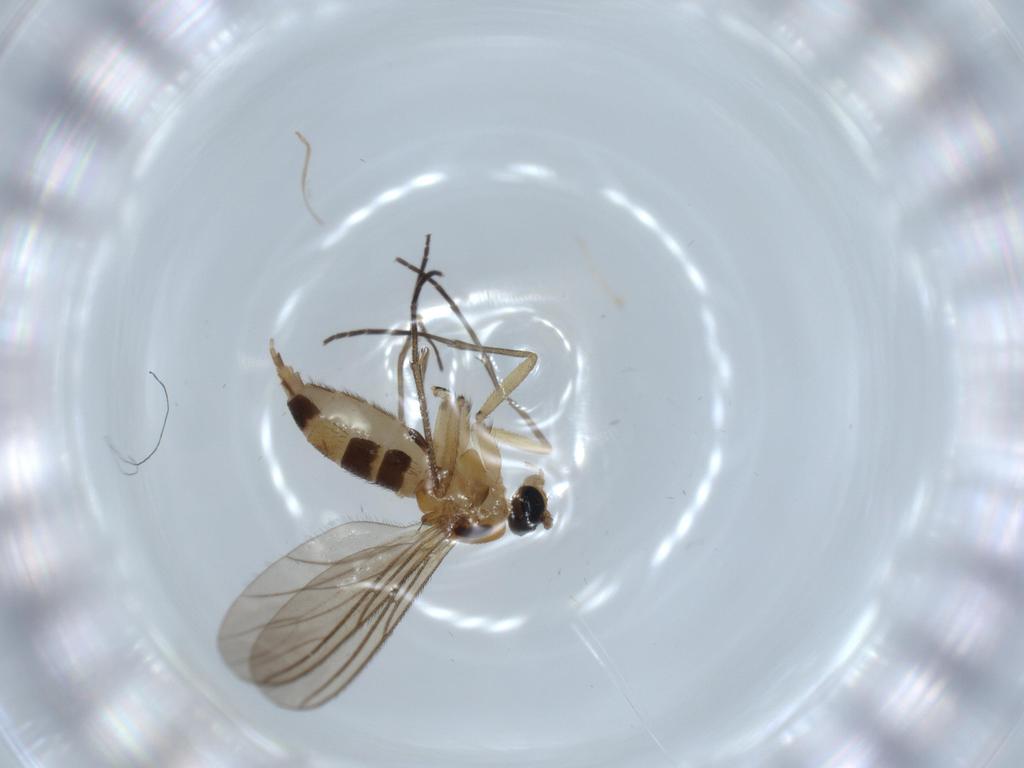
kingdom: Animalia
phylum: Arthropoda
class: Insecta
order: Diptera
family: Sciaridae
